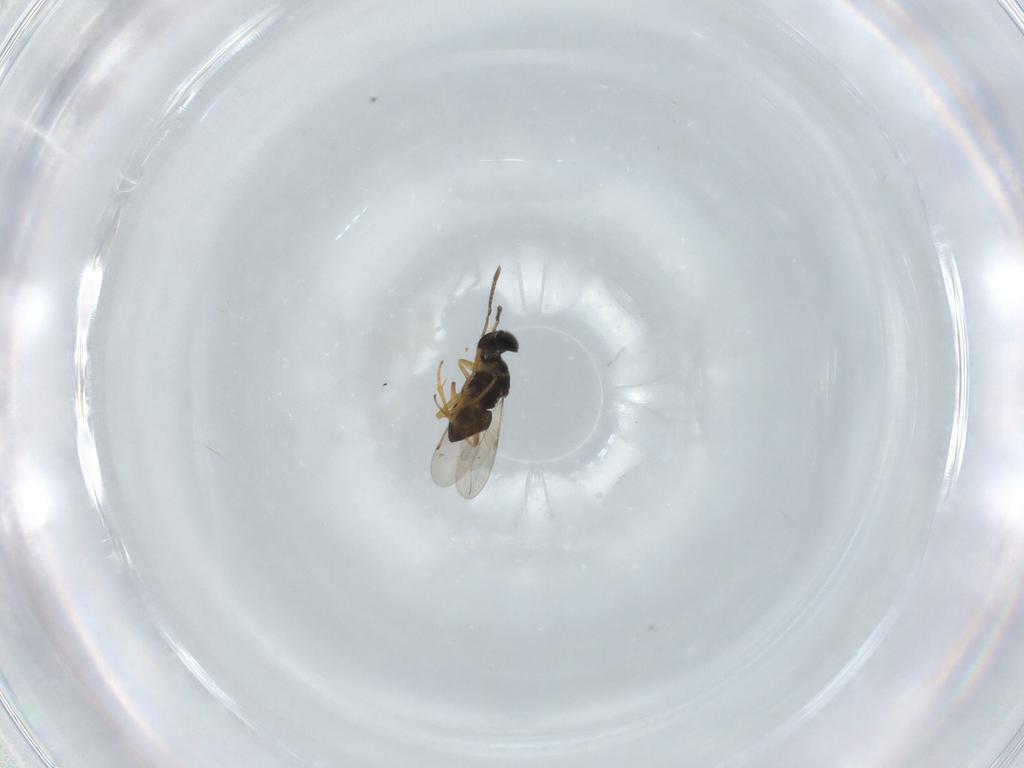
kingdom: Animalia
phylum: Arthropoda
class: Insecta
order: Hymenoptera
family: Encyrtidae
